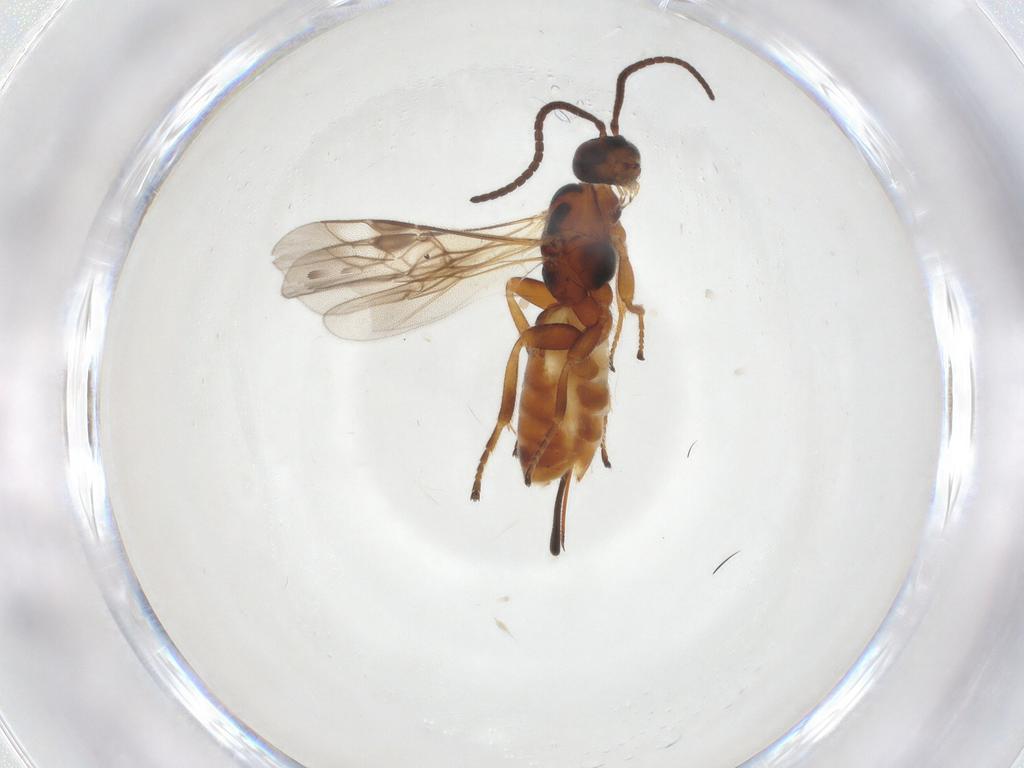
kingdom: Animalia
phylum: Arthropoda
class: Insecta
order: Hymenoptera
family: Braconidae
